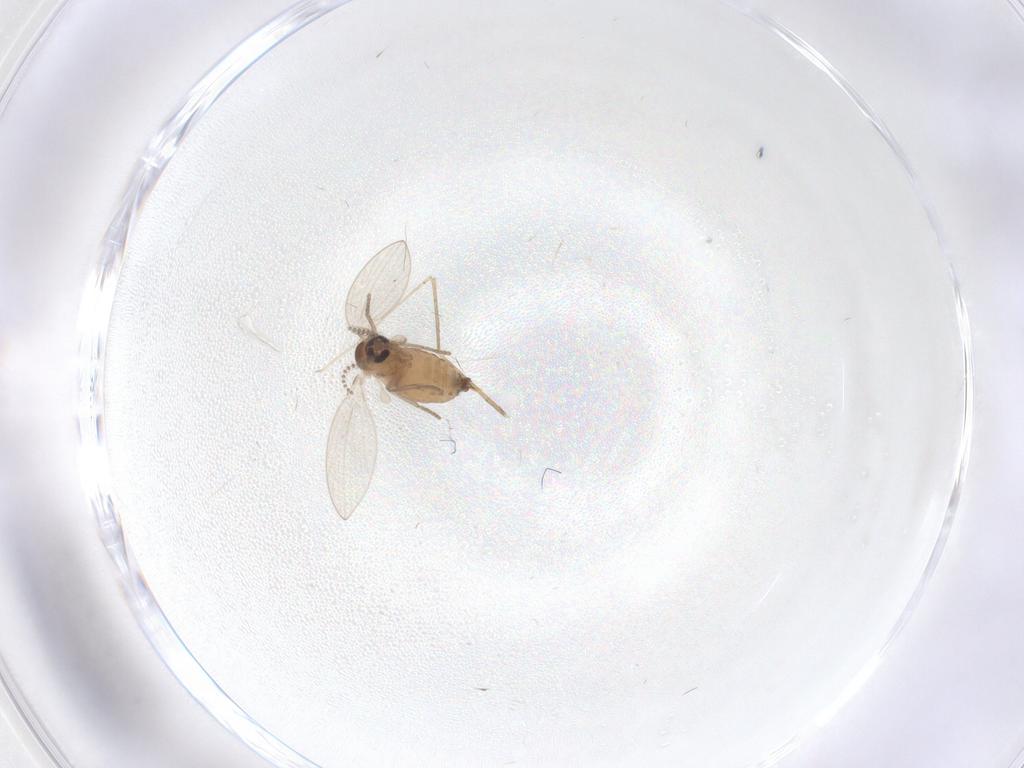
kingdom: Animalia
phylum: Arthropoda
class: Insecta
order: Diptera
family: Psychodidae
